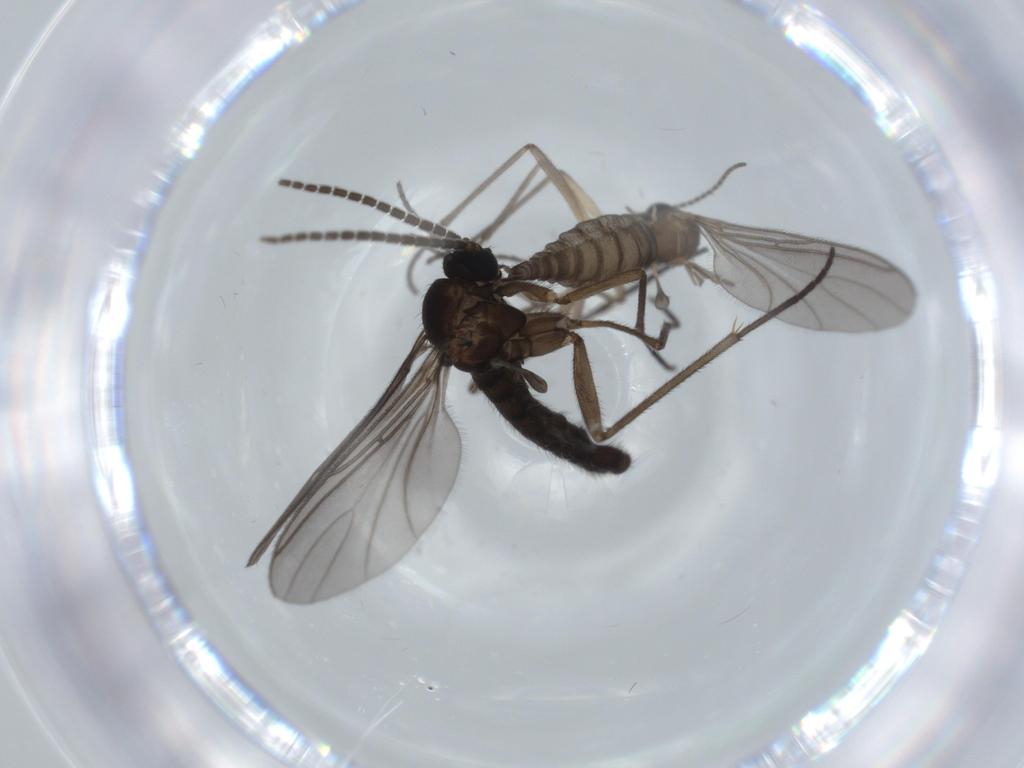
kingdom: Animalia
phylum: Arthropoda
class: Insecta
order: Diptera
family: Sciaridae
